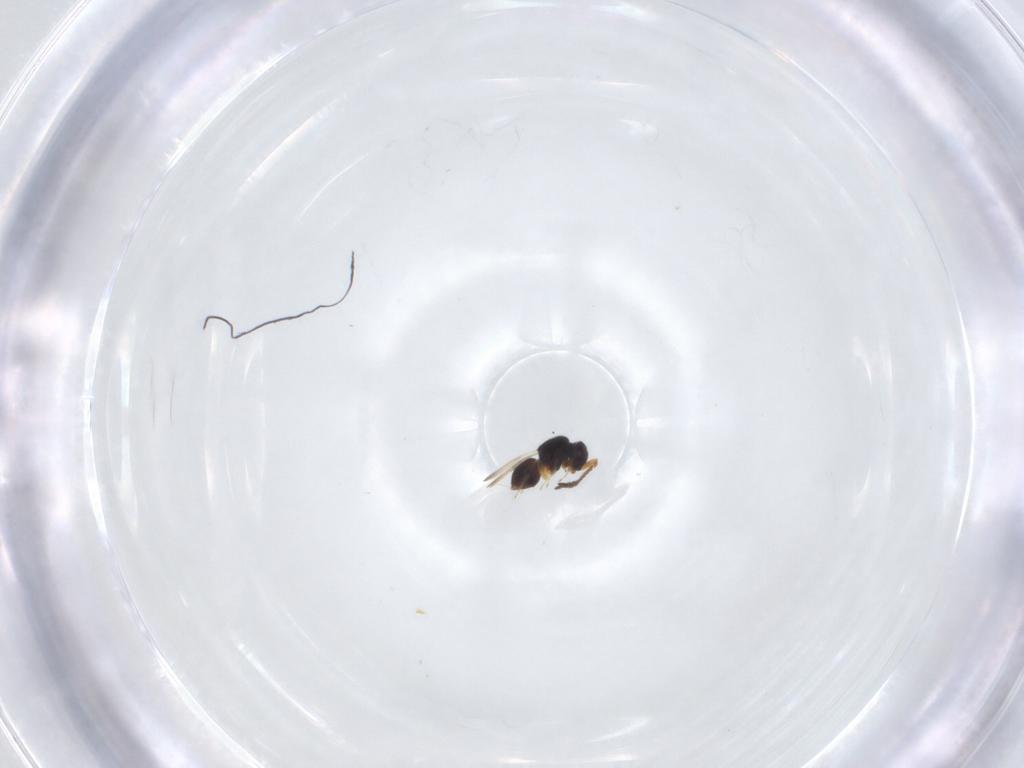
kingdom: Animalia
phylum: Arthropoda
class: Insecta
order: Hymenoptera
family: Formicidae
